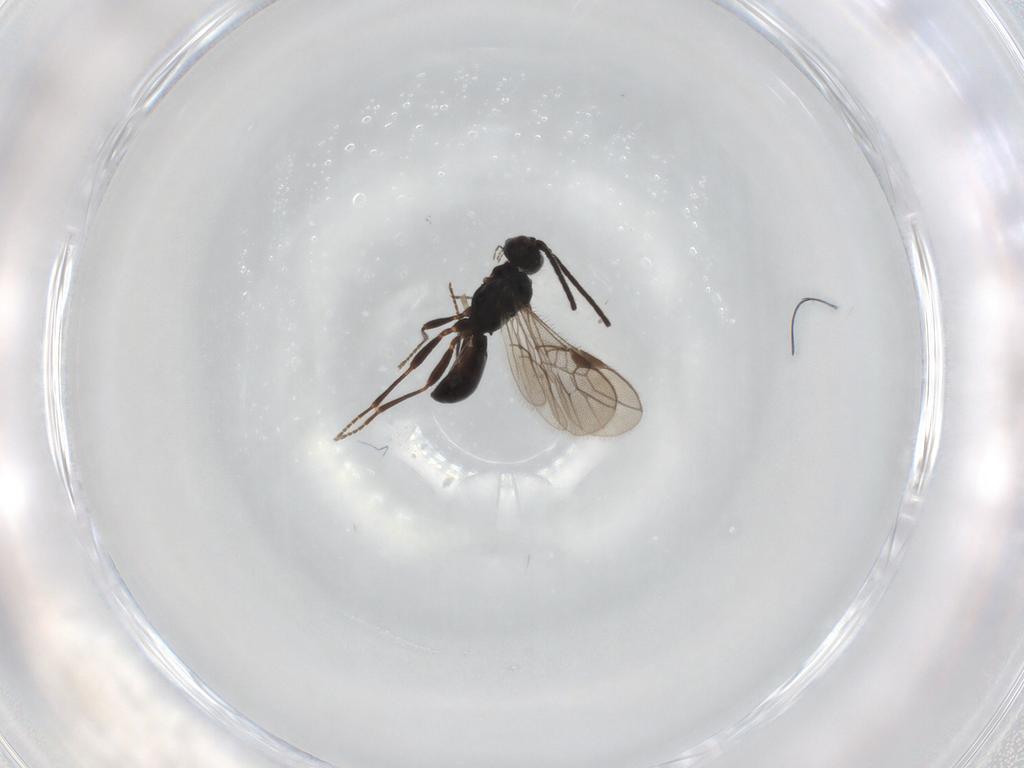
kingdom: Animalia
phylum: Arthropoda
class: Insecta
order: Hymenoptera
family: Braconidae
